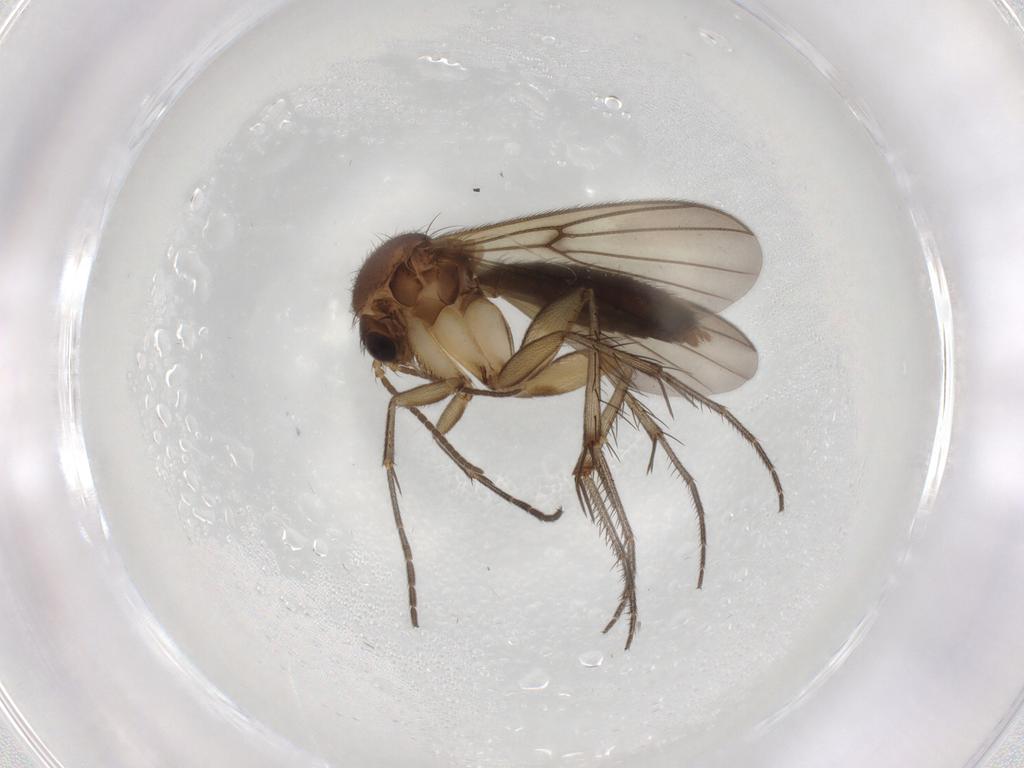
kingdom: Animalia
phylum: Arthropoda
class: Insecta
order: Diptera
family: Chironomidae
